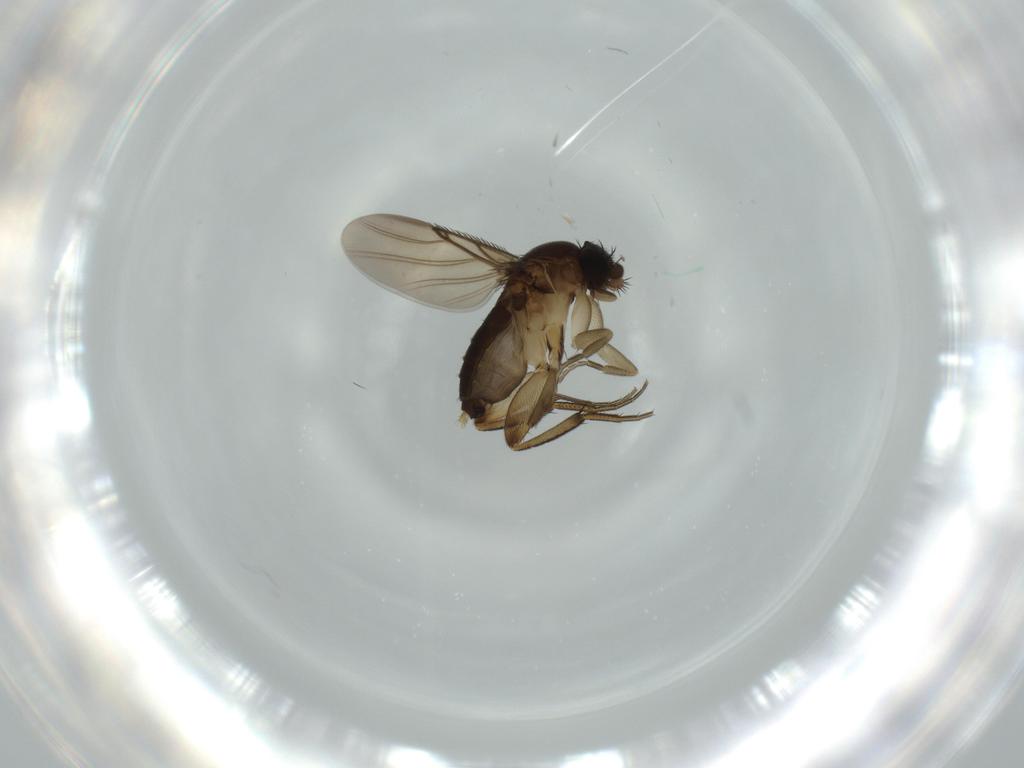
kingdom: Animalia
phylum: Arthropoda
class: Insecta
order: Diptera
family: Phoridae
